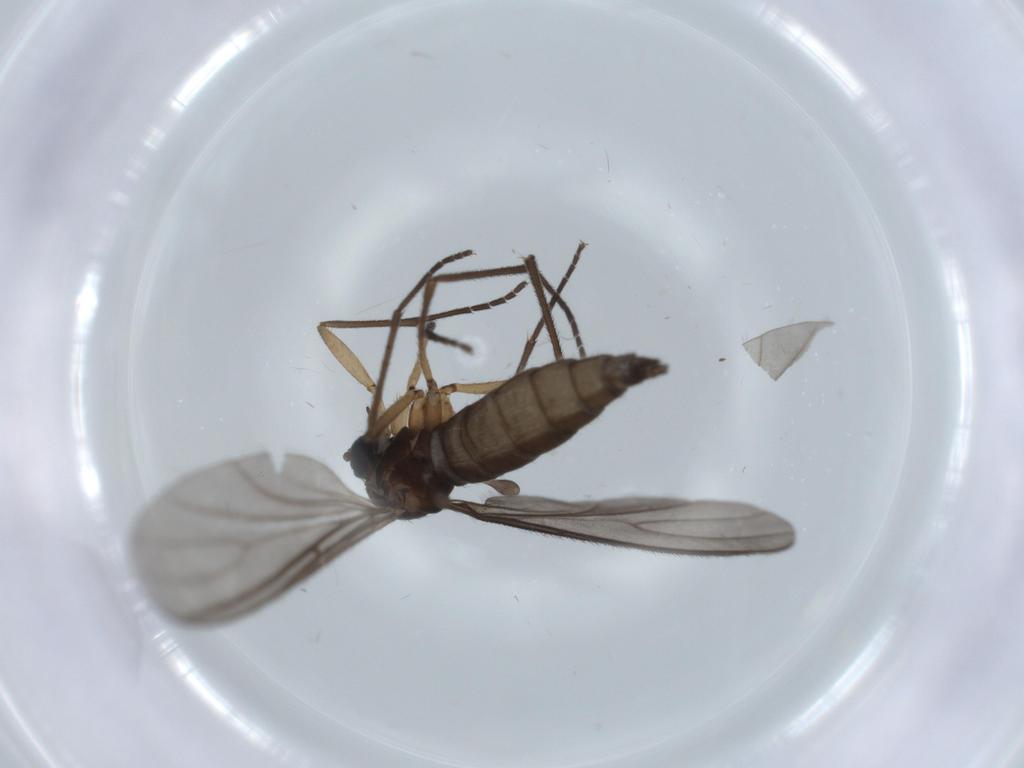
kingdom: Animalia
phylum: Arthropoda
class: Insecta
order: Diptera
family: Sciaridae
